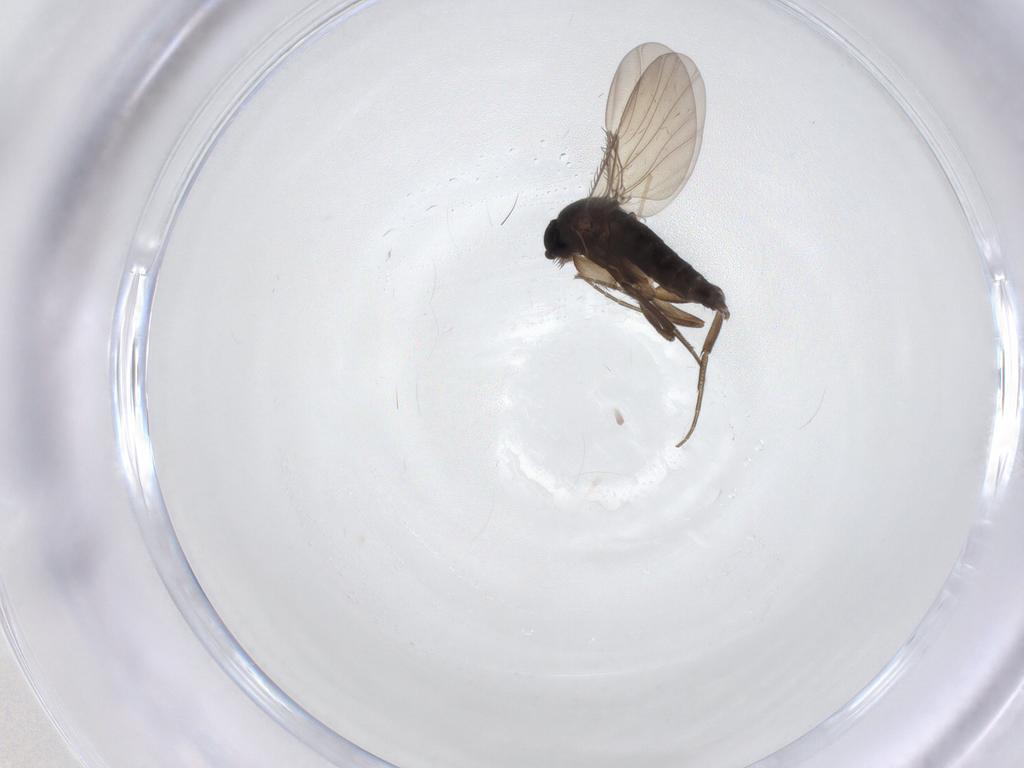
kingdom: Animalia
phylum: Arthropoda
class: Insecta
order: Diptera
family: Phoridae
